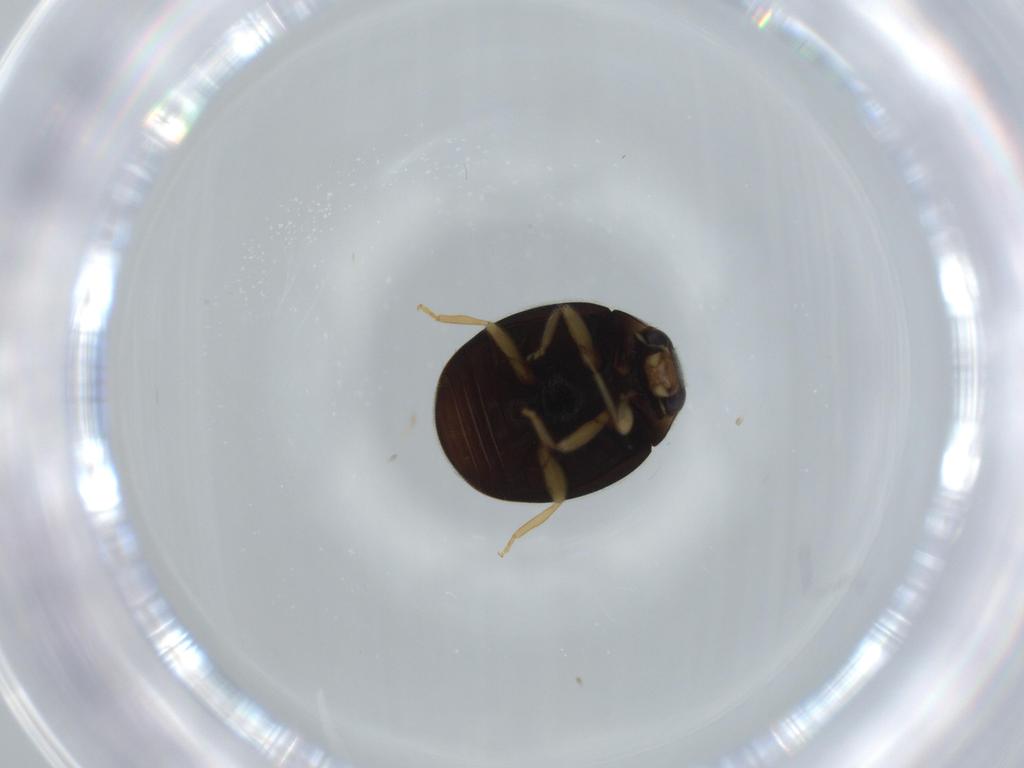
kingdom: Animalia
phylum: Arthropoda
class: Insecta
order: Coleoptera
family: Coccinellidae
